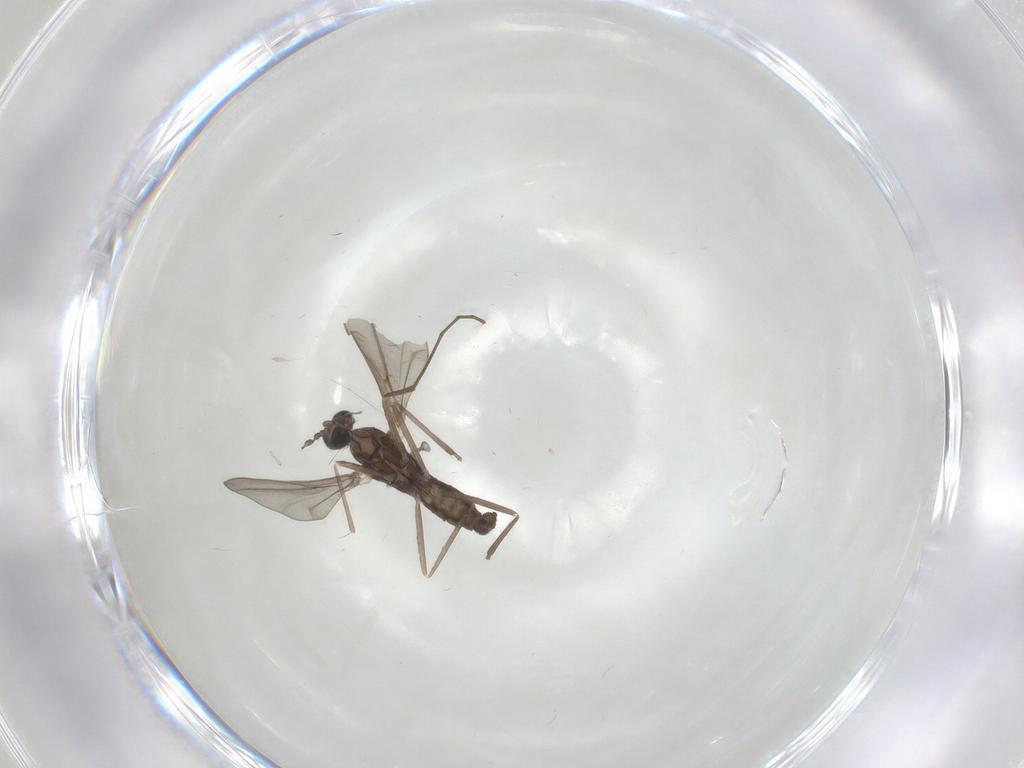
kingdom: Animalia
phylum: Arthropoda
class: Insecta
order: Diptera
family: Cecidomyiidae
